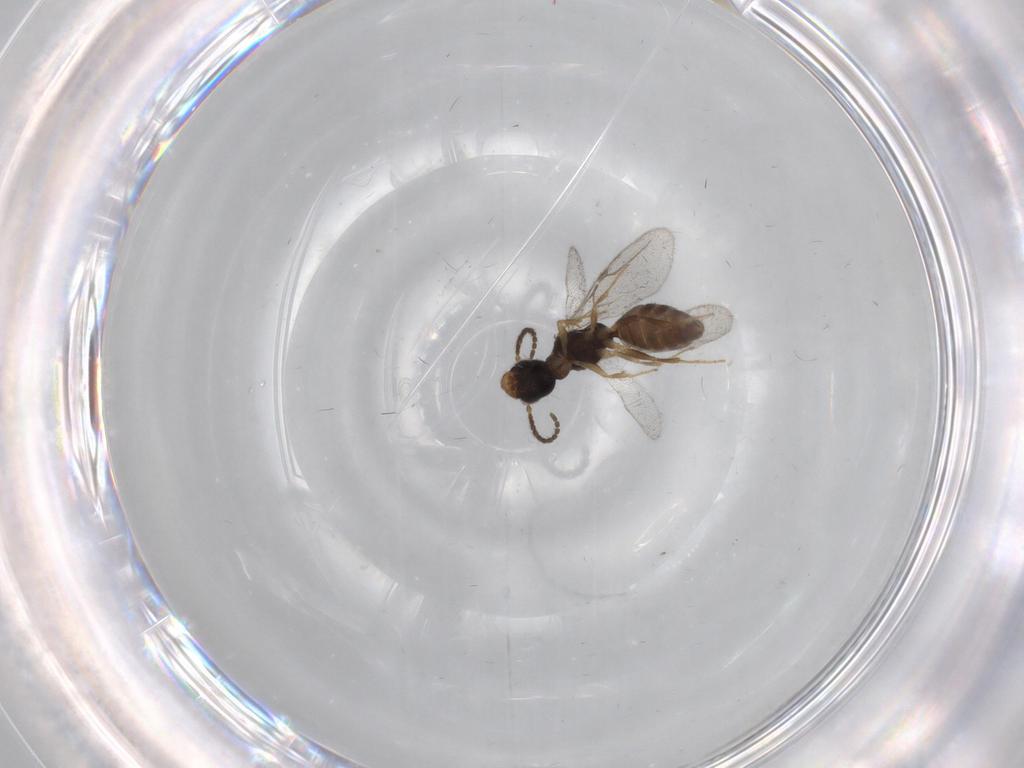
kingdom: Animalia
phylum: Arthropoda
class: Insecta
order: Hymenoptera
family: Bethylidae
